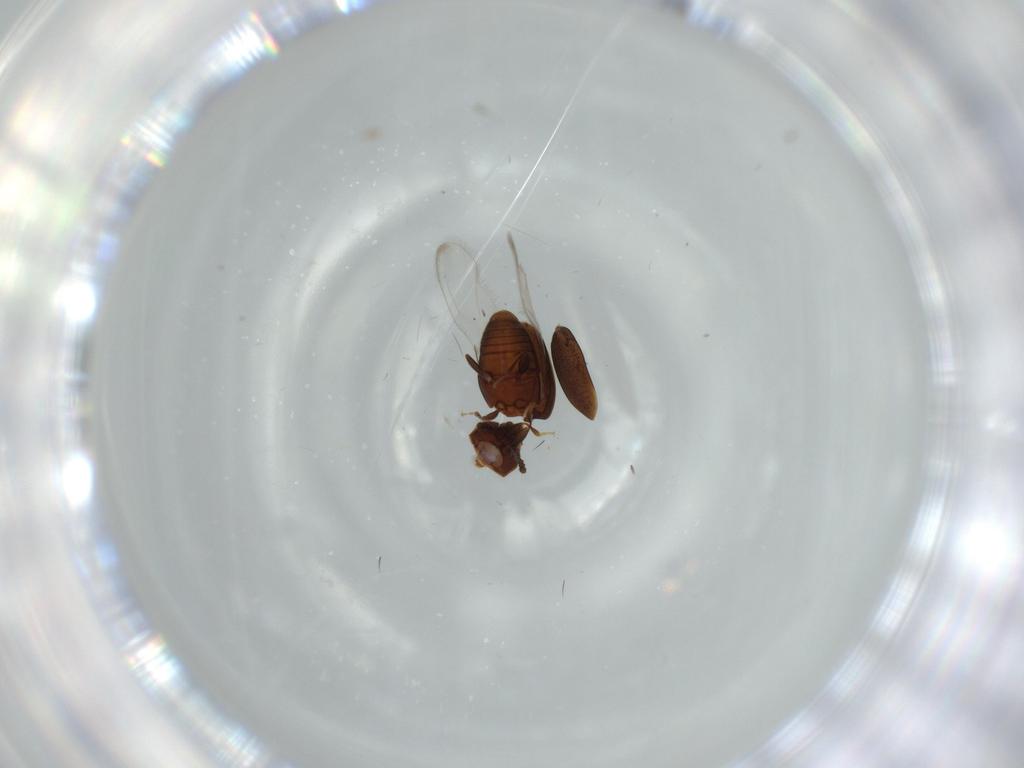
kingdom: Animalia
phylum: Arthropoda
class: Insecta
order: Coleoptera
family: Corylophidae
